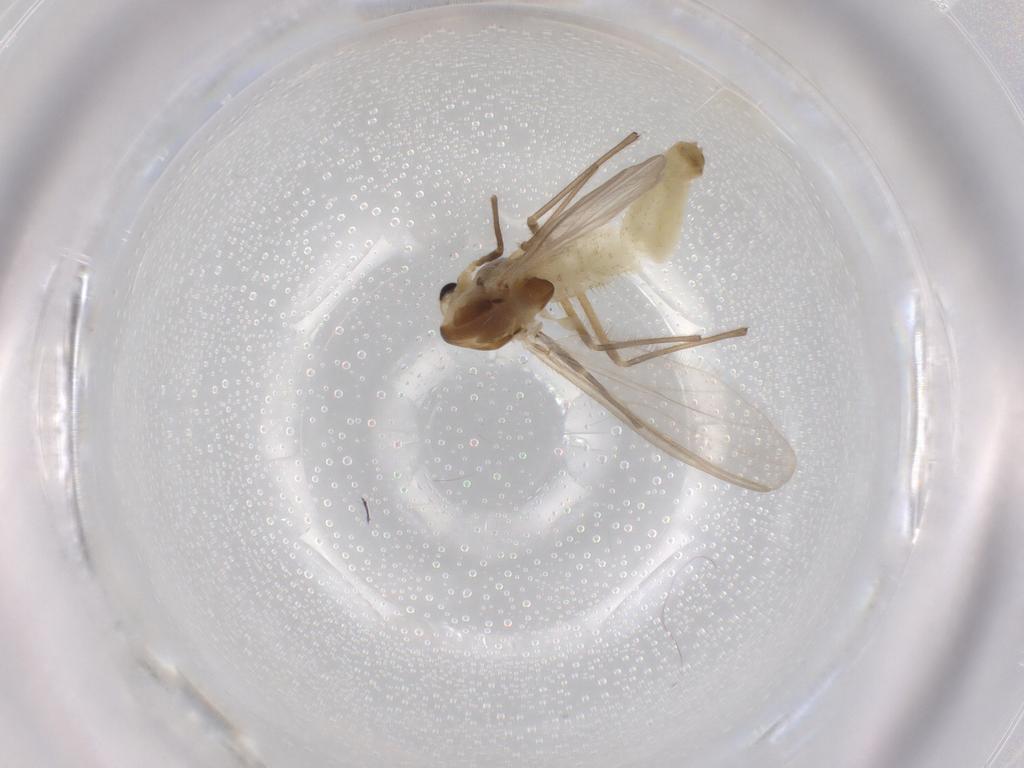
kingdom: Animalia
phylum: Arthropoda
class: Insecta
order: Diptera
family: Chironomidae
